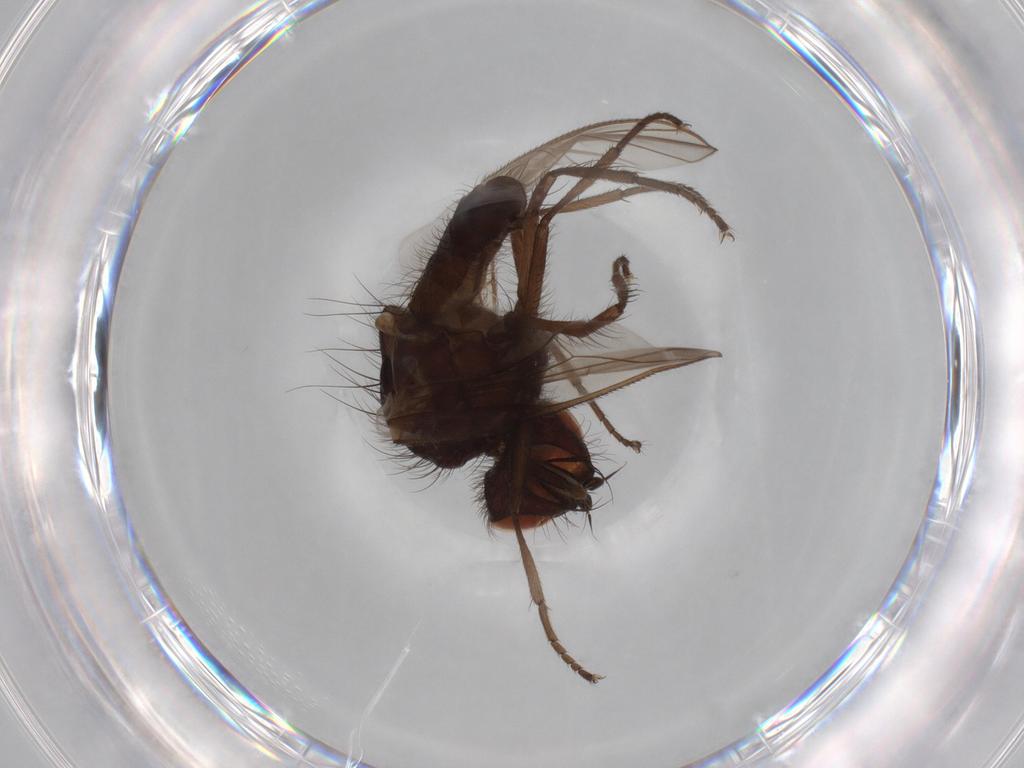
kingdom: Animalia
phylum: Arthropoda
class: Insecta
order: Diptera
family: Anthomyiidae
